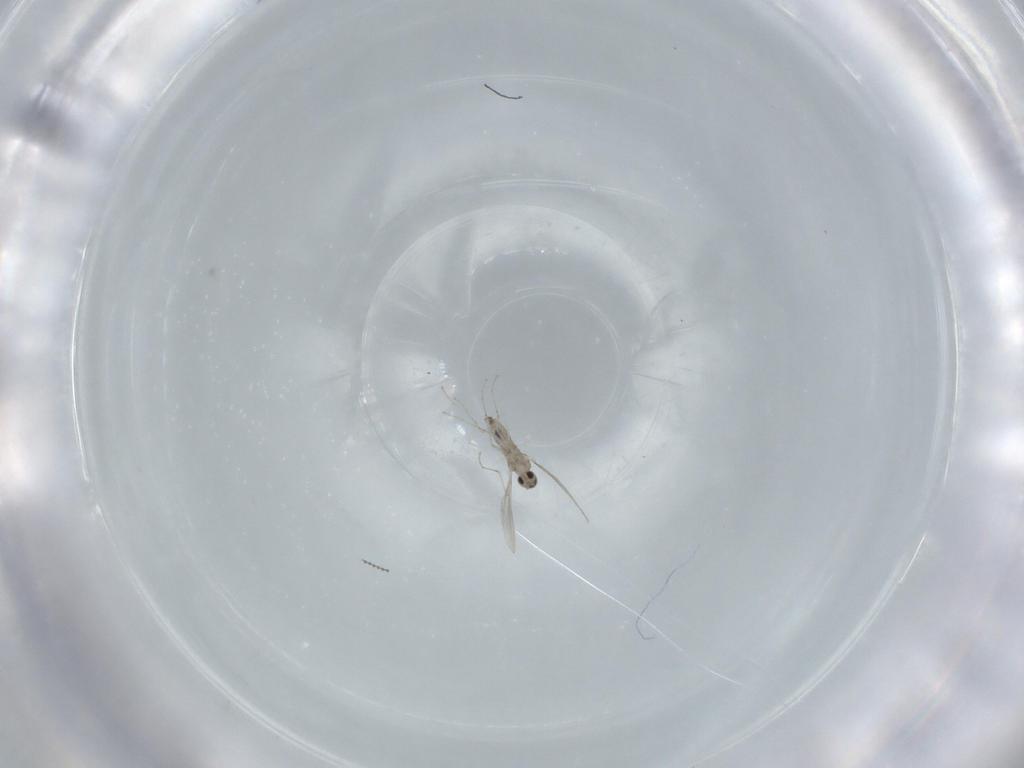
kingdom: Animalia
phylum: Arthropoda
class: Insecta
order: Diptera
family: Cecidomyiidae
